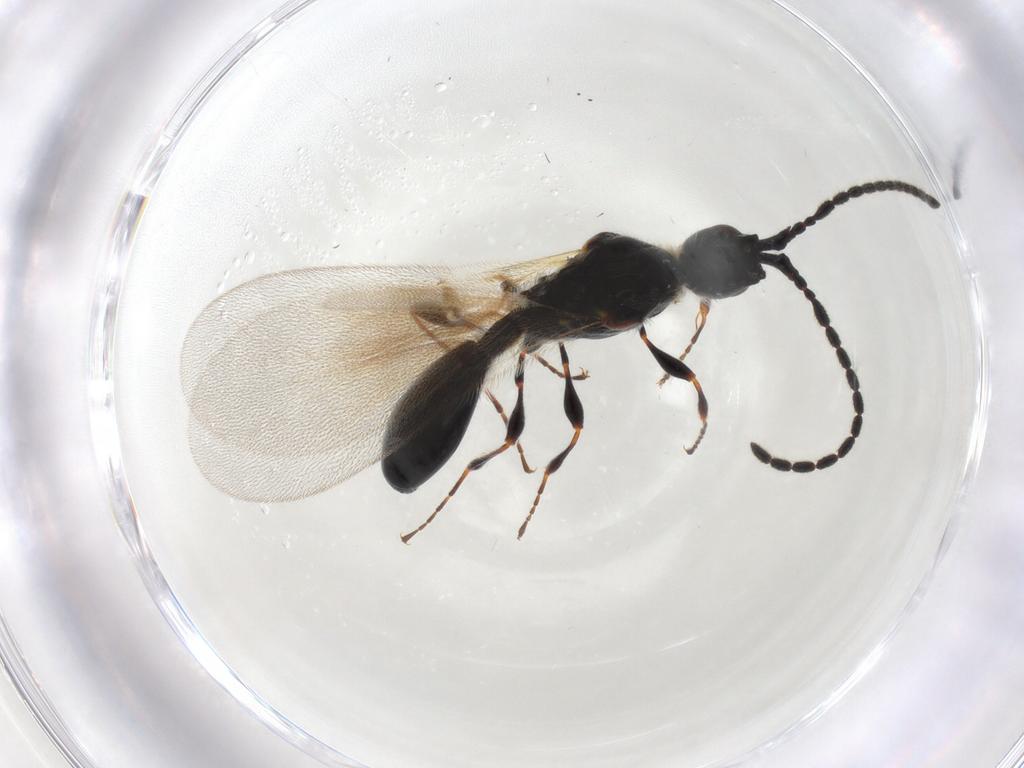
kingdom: Animalia
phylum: Arthropoda
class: Insecta
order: Hymenoptera
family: Diapriidae
